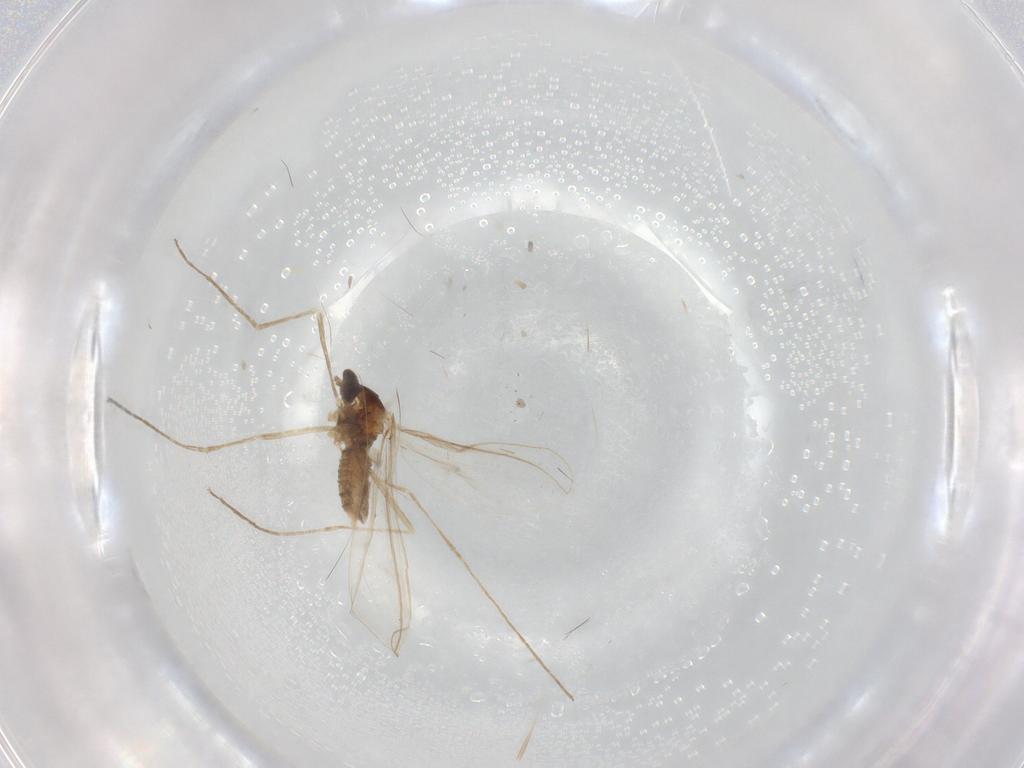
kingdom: Animalia
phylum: Arthropoda
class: Insecta
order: Diptera
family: Cecidomyiidae
